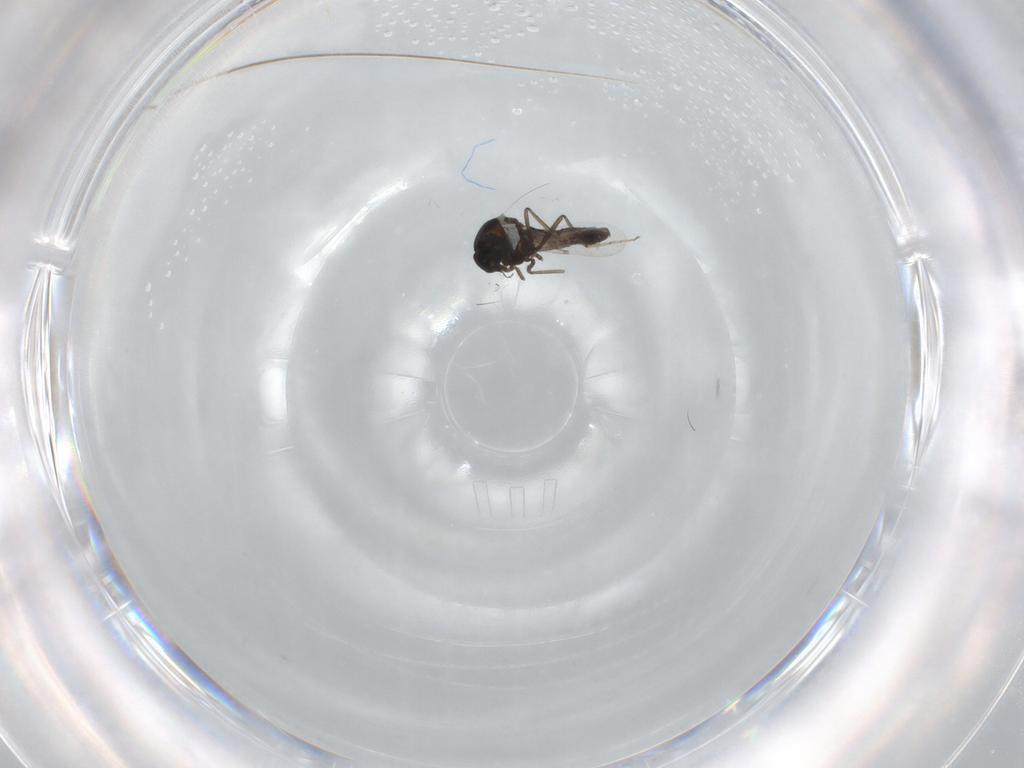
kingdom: Animalia
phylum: Arthropoda
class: Insecta
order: Diptera
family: Ceratopogonidae
